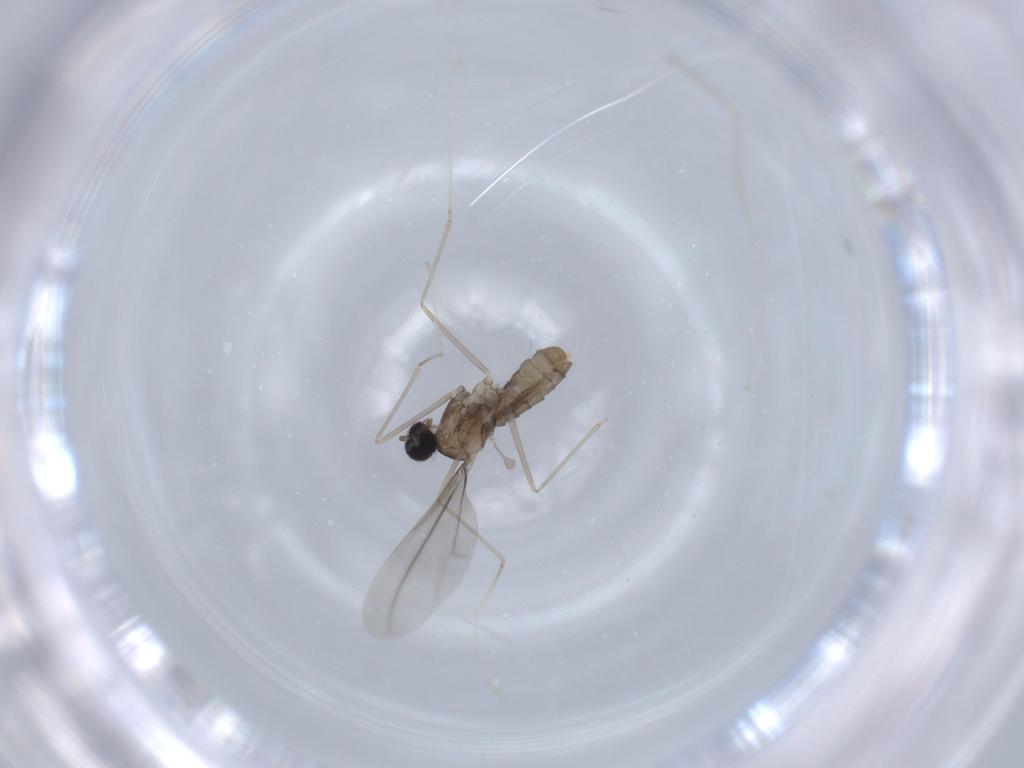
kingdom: Animalia
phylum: Arthropoda
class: Insecta
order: Diptera
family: Cecidomyiidae
